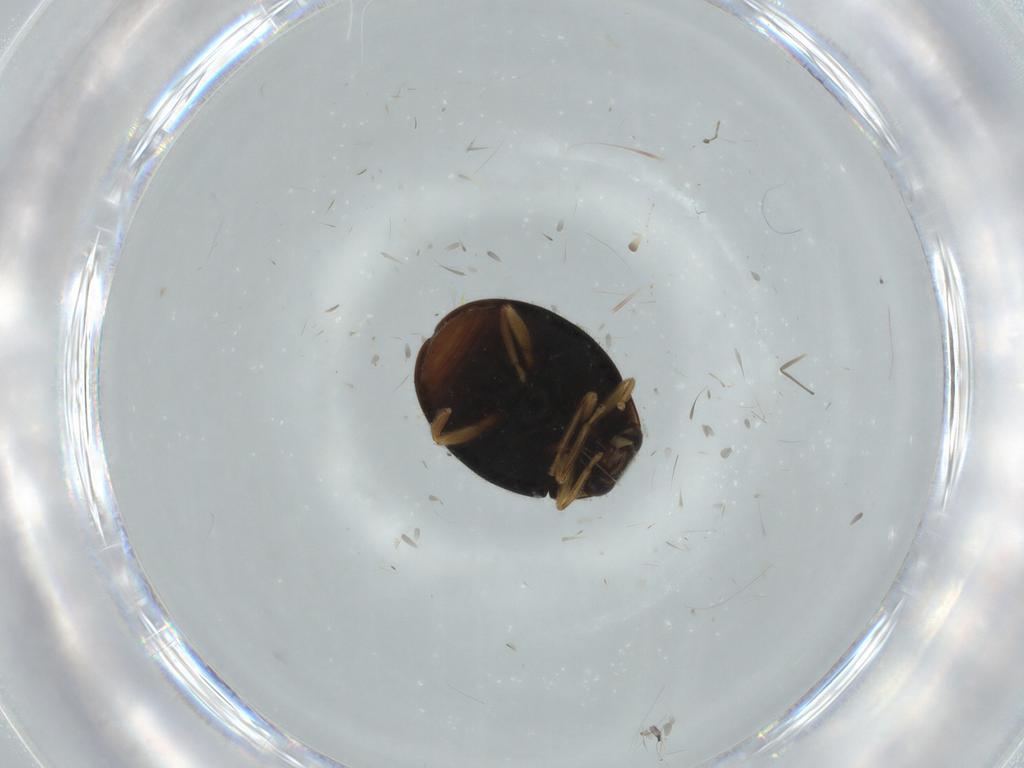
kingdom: Animalia
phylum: Arthropoda
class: Insecta
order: Coleoptera
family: Coccinellidae
